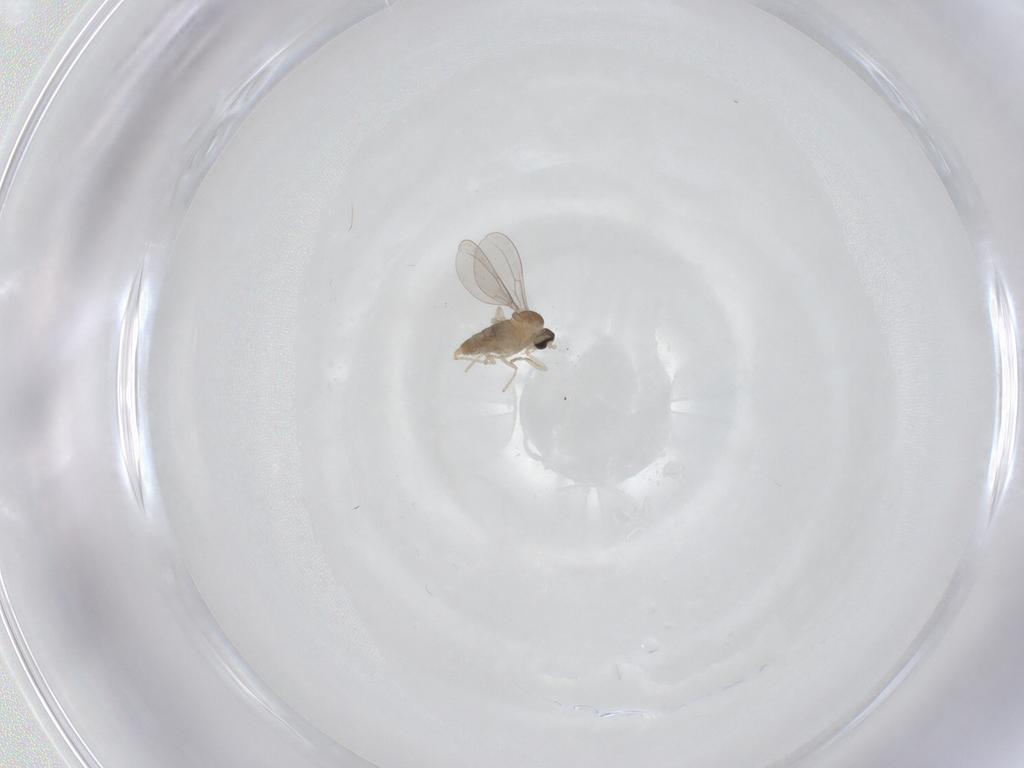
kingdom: Animalia
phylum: Arthropoda
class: Insecta
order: Diptera
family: Cecidomyiidae
